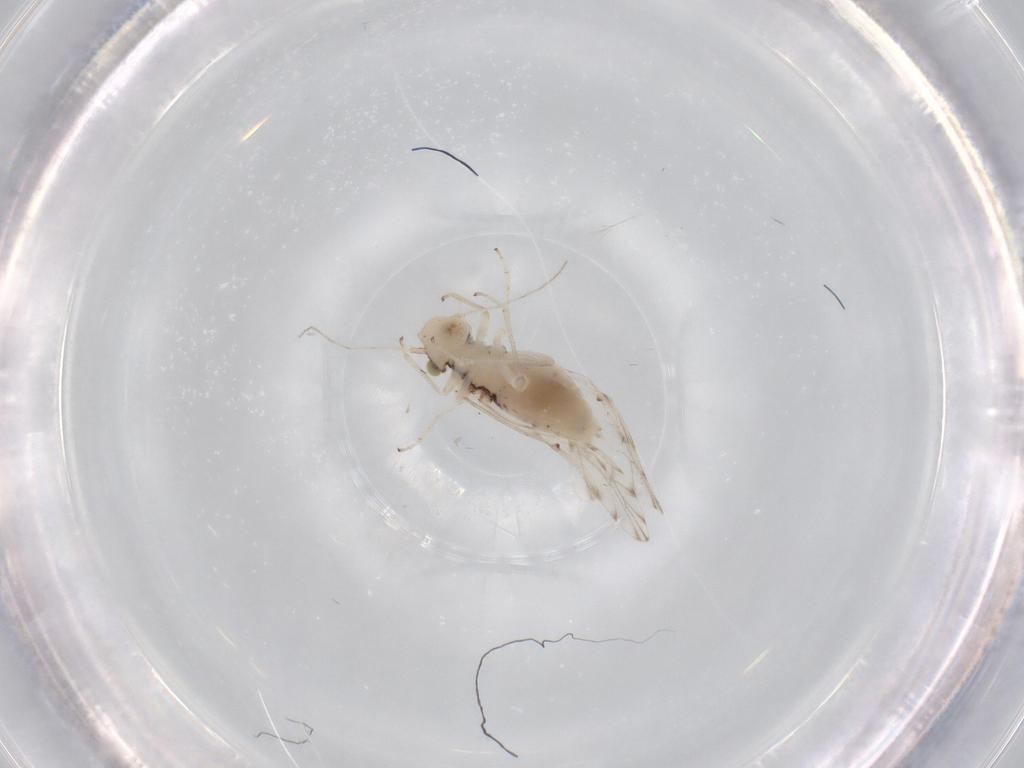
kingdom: Animalia
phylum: Arthropoda
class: Insecta
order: Psocodea
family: Ectopsocidae
